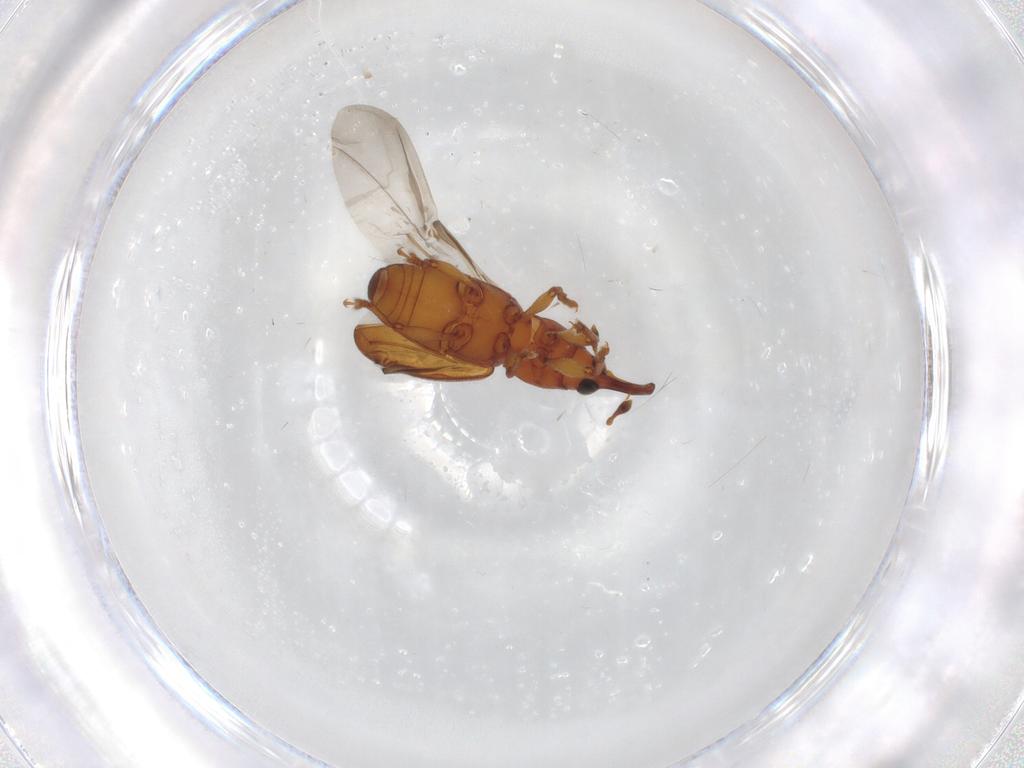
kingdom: Animalia
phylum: Arthropoda
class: Insecta
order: Coleoptera
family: Curculionidae
